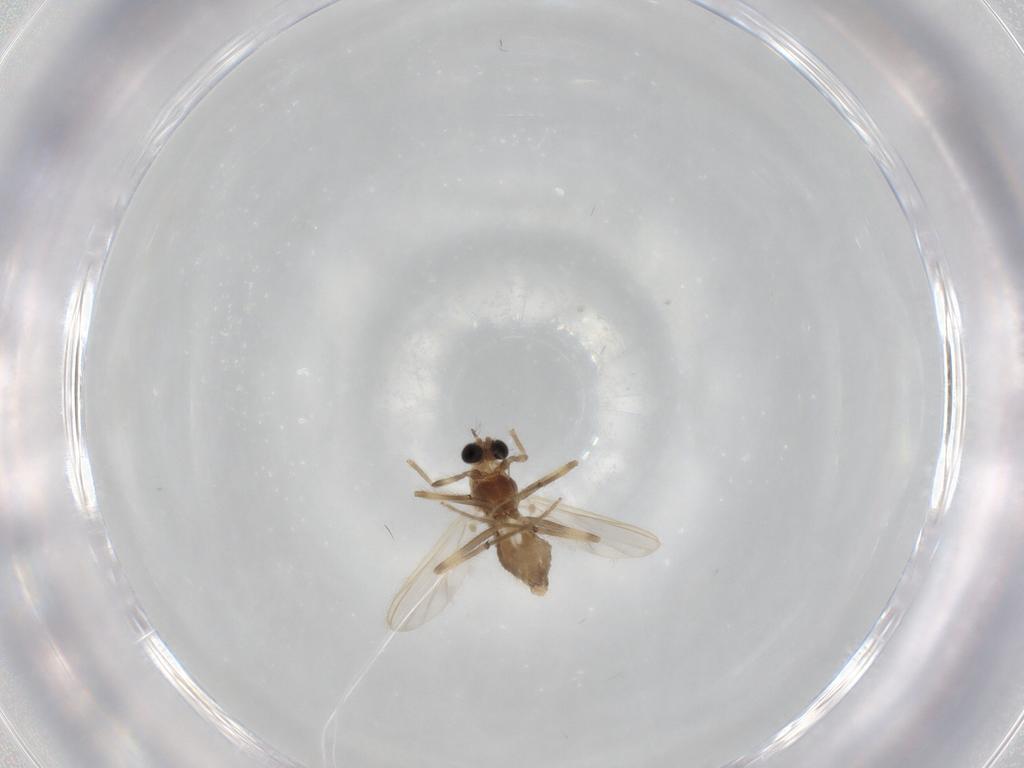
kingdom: Animalia
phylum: Arthropoda
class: Insecta
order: Diptera
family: Chironomidae
